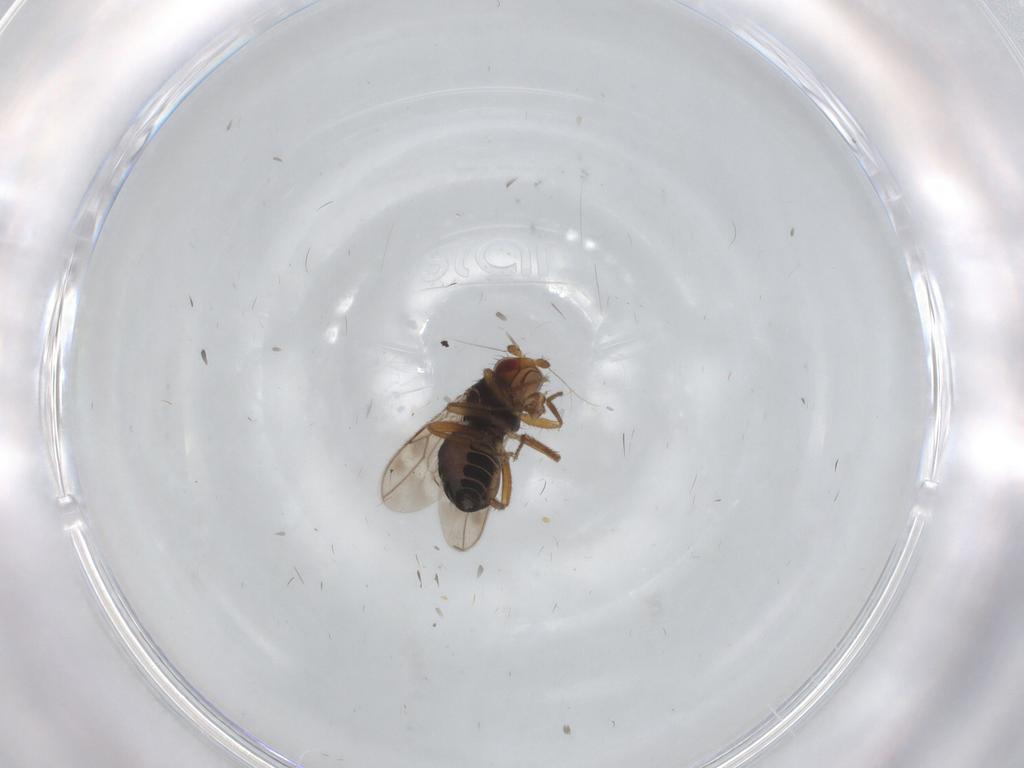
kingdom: Animalia
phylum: Arthropoda
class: Insecta
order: Diptera
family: Sphaeroceridae
